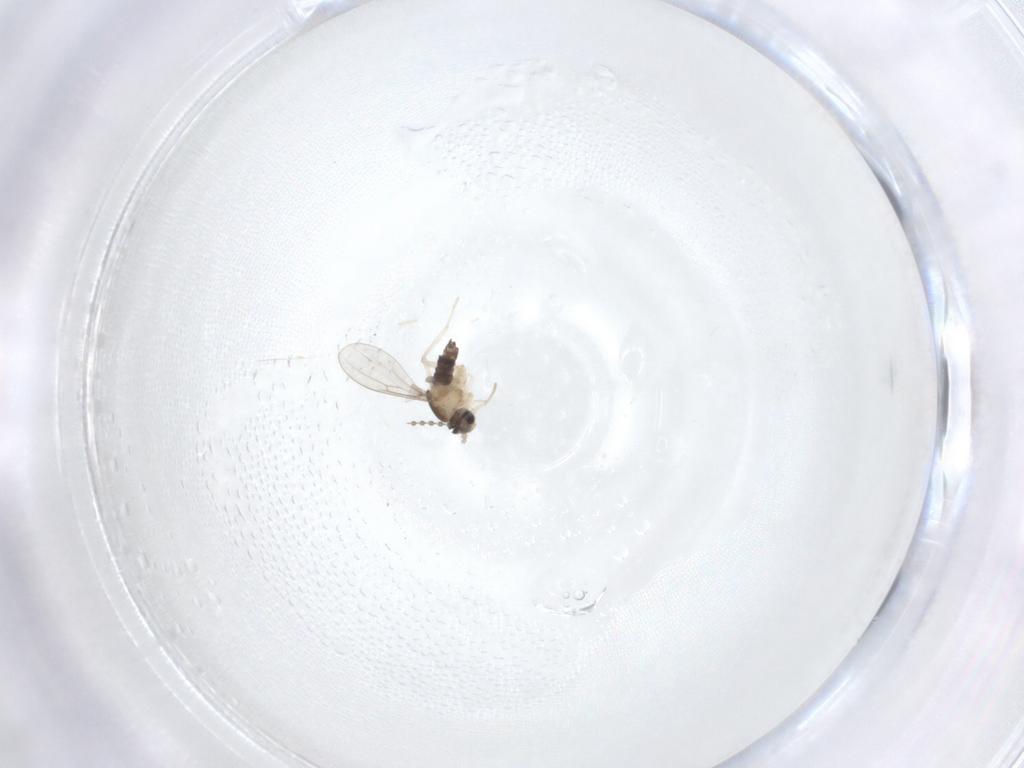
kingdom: Animalia
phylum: Arthropoda
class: Insecta
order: Diptera
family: Cecidomyiidae
